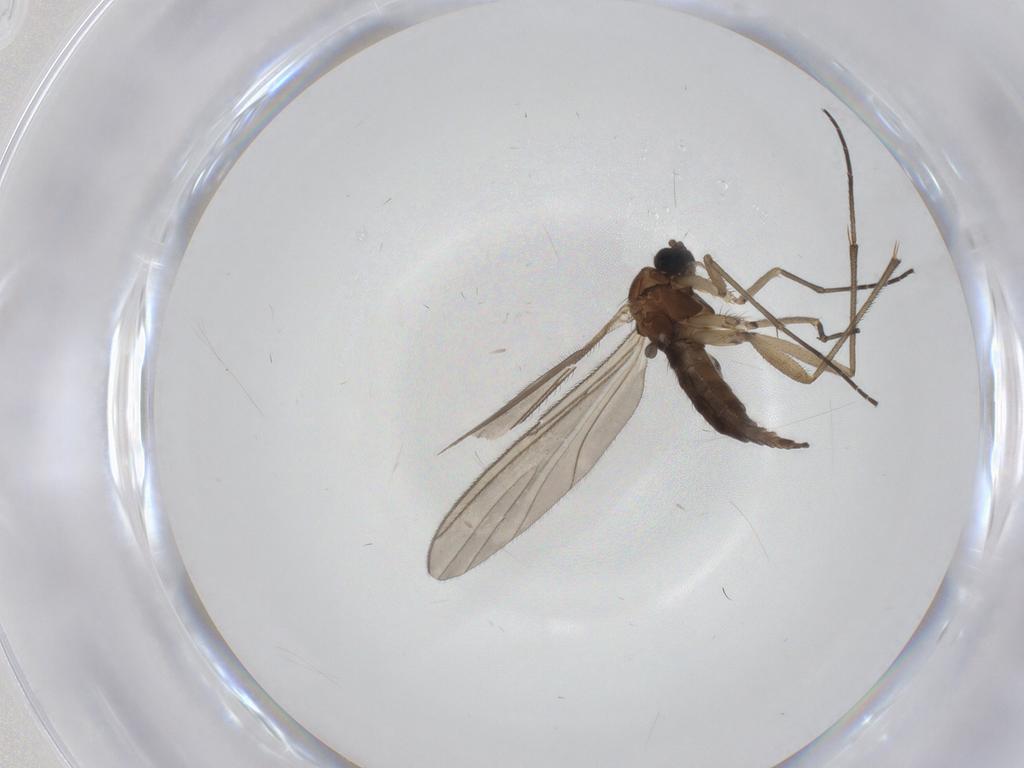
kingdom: Animalia
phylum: Arthropoda
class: Insecta
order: Diptera
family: Sciaridae
